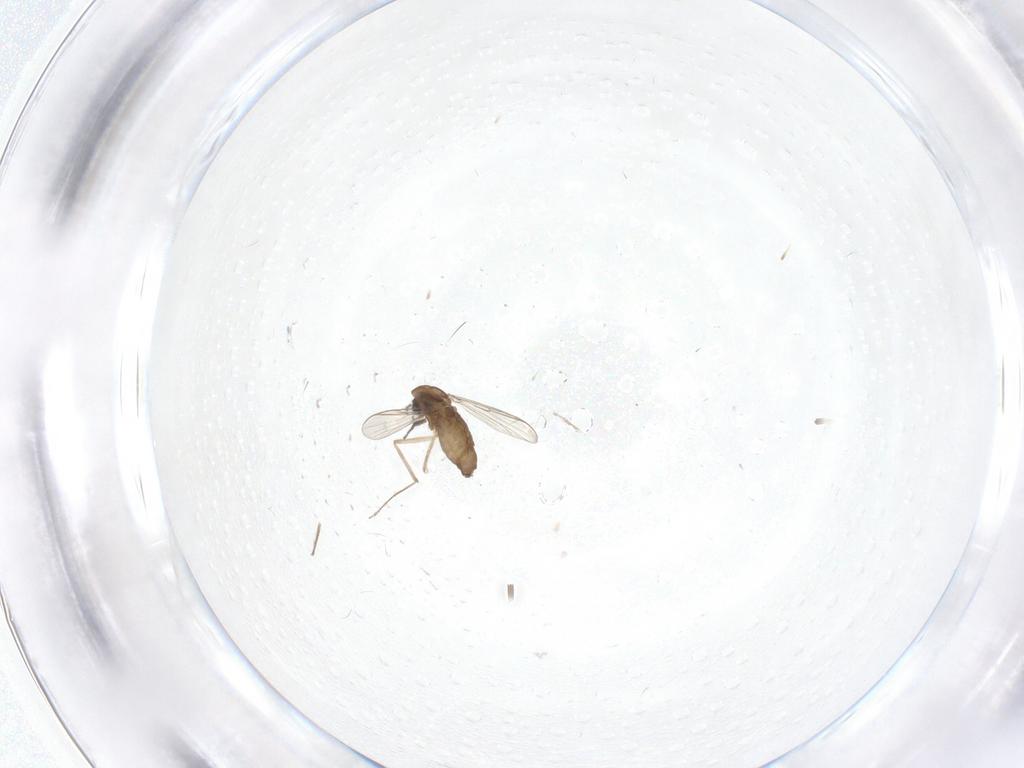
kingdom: Animalia
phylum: Arthropoda
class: Insecta
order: Diptera
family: Chironomidae
